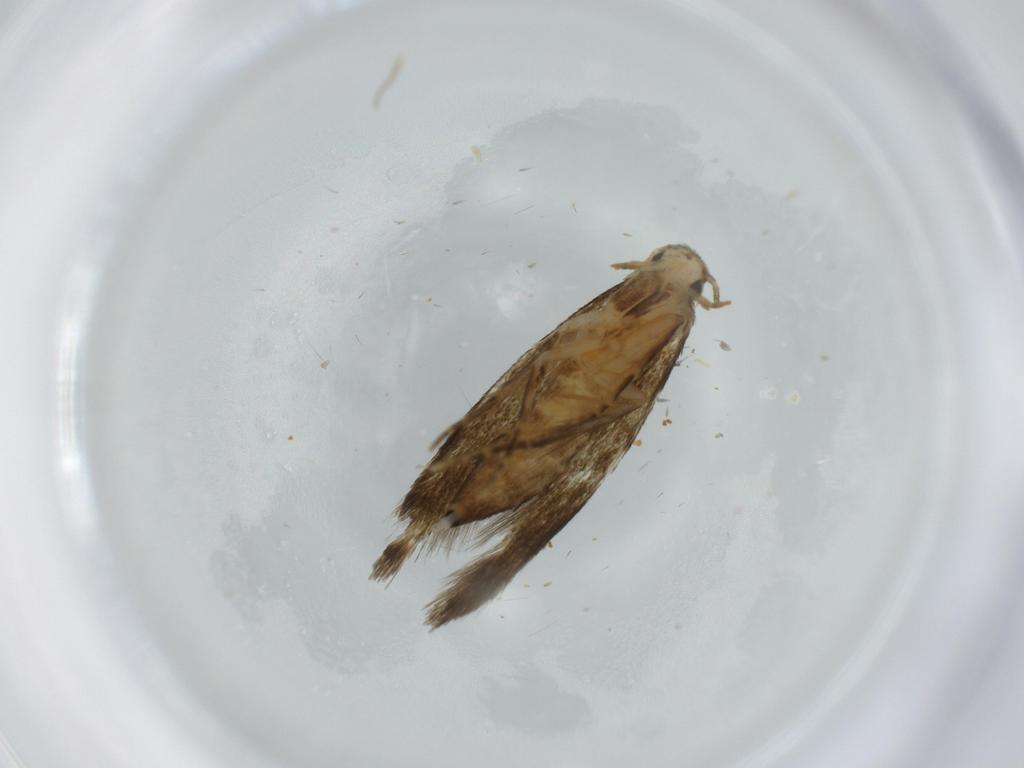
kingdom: Animalia
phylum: Arthropoda
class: Insecta
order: Lepidoptera
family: Tineidae
